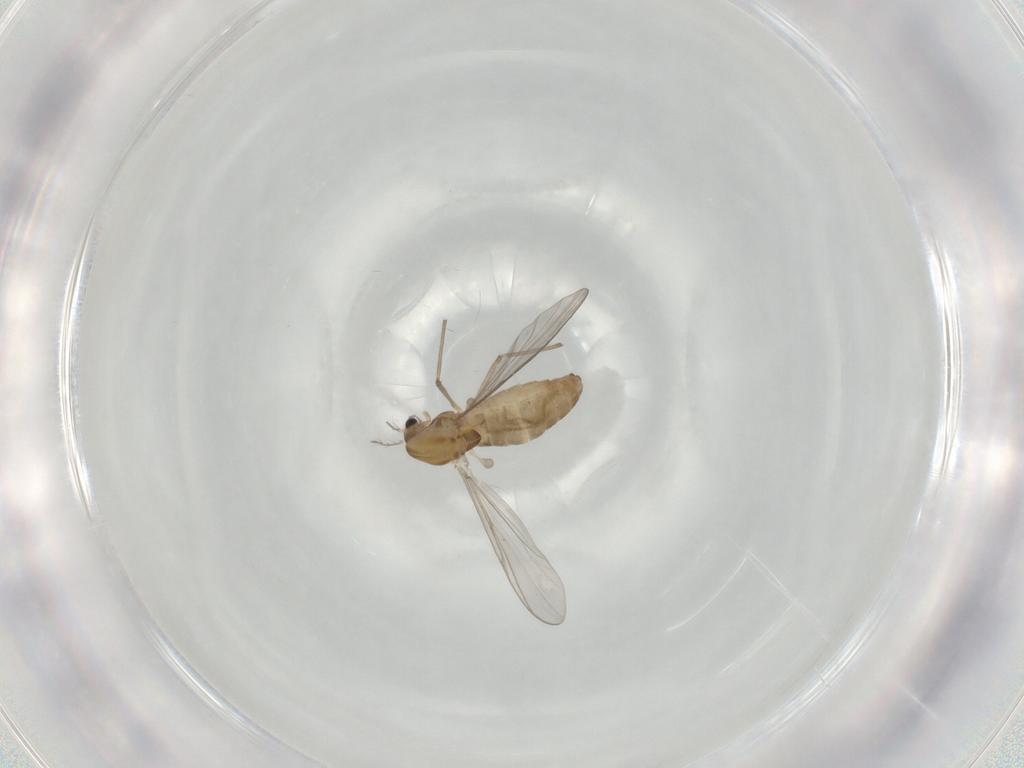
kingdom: Animalia
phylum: Arthropoda
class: Insecta
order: Diptera
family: Chironomidae
